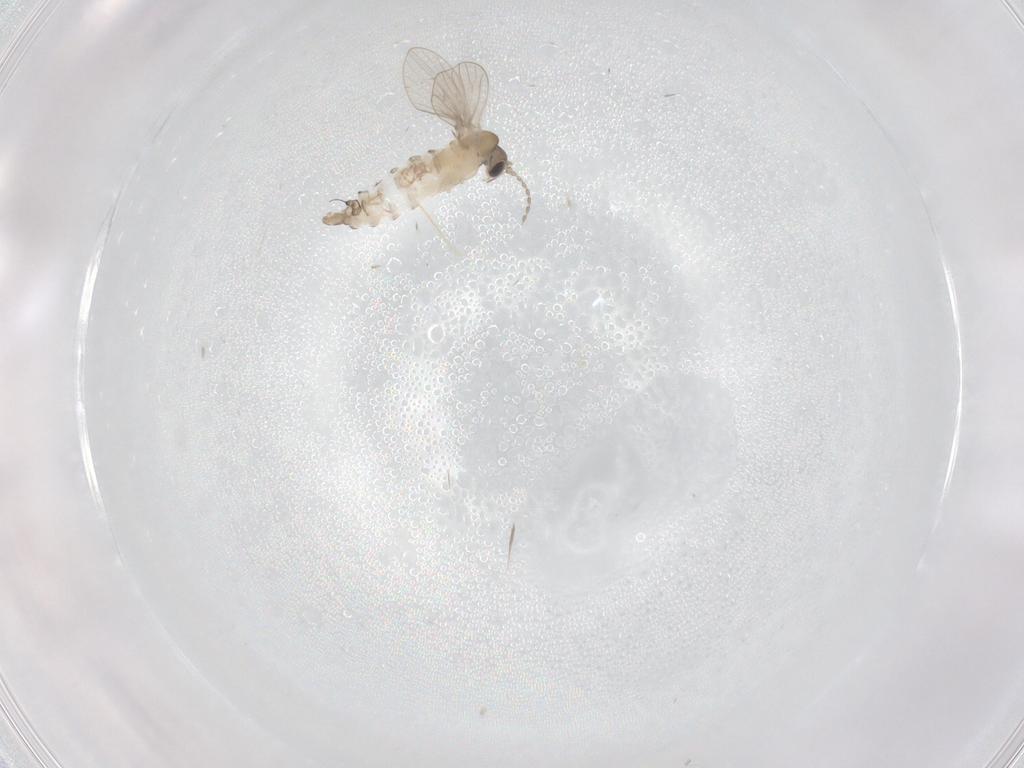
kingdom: Animalia
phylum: Arthropoda
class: Insecta
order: Diptera
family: Psychodidae
